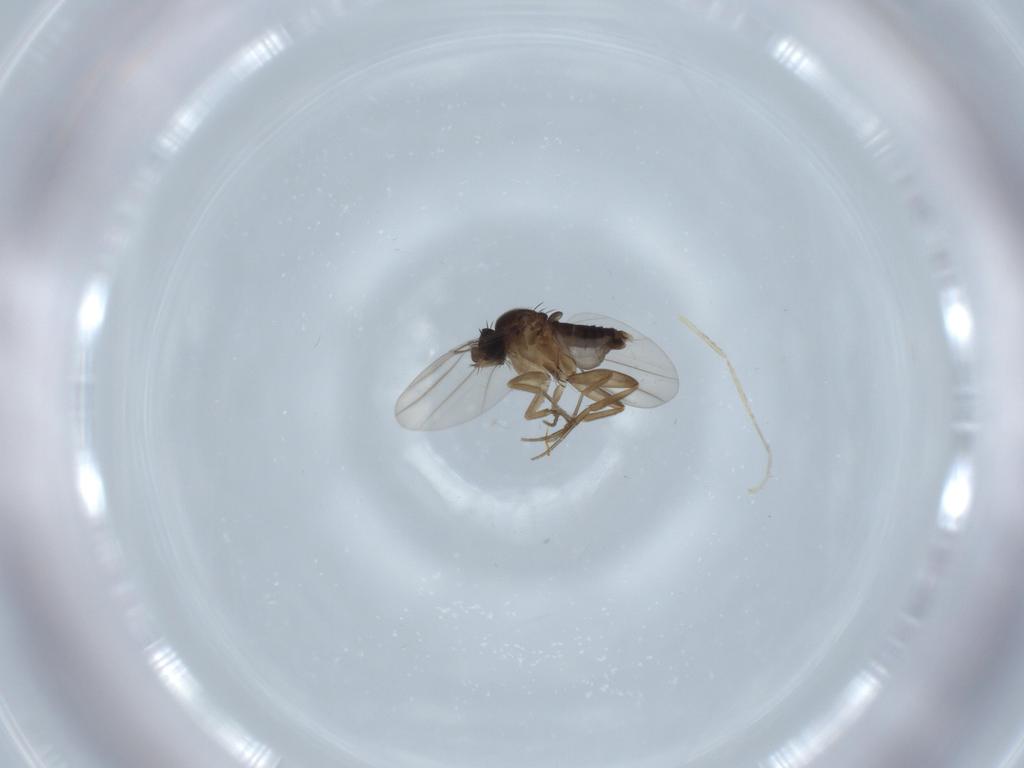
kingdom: Animalia
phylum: Arthropoda
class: Insecta
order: Diptera
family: Phoridae
